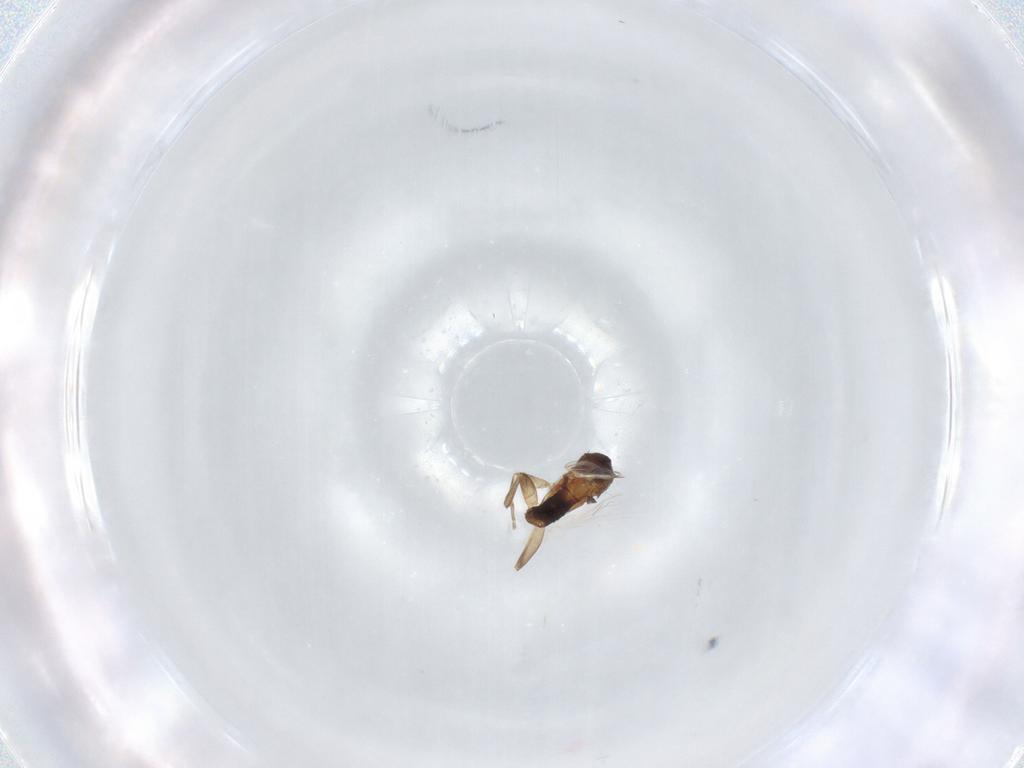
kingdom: Animalia
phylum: Arthropoda
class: Insecta
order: Diptera
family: Phoridae
